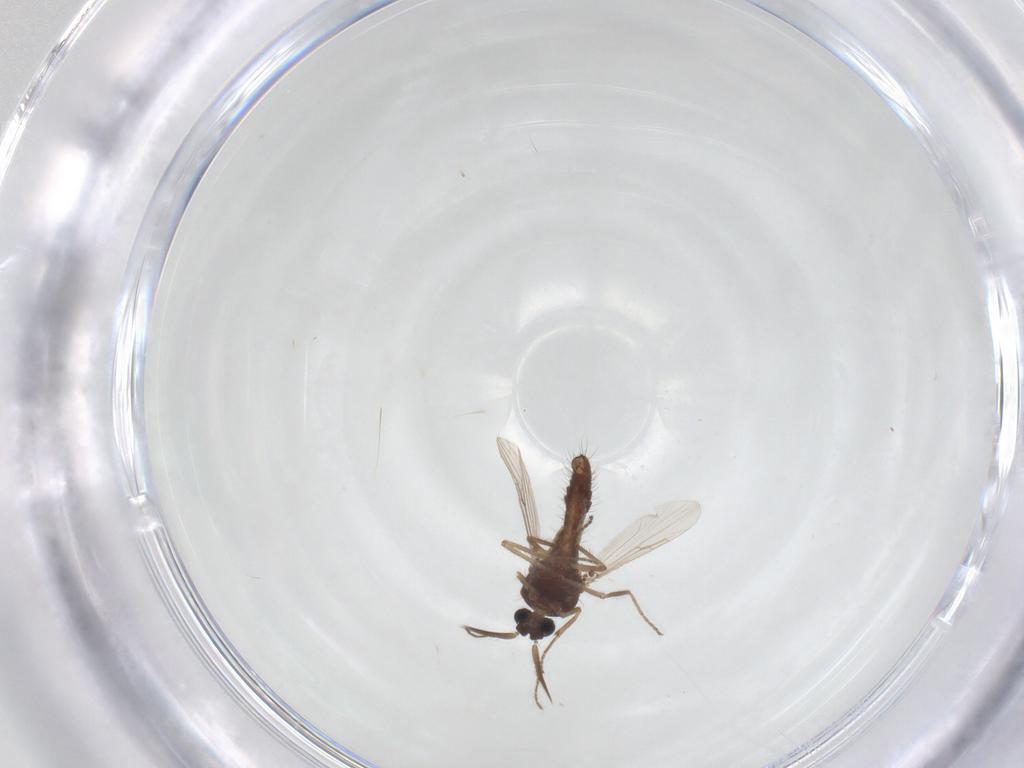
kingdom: Animalia
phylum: Arthropoda
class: Insecta
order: Diptera
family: Ceratopogonidae
